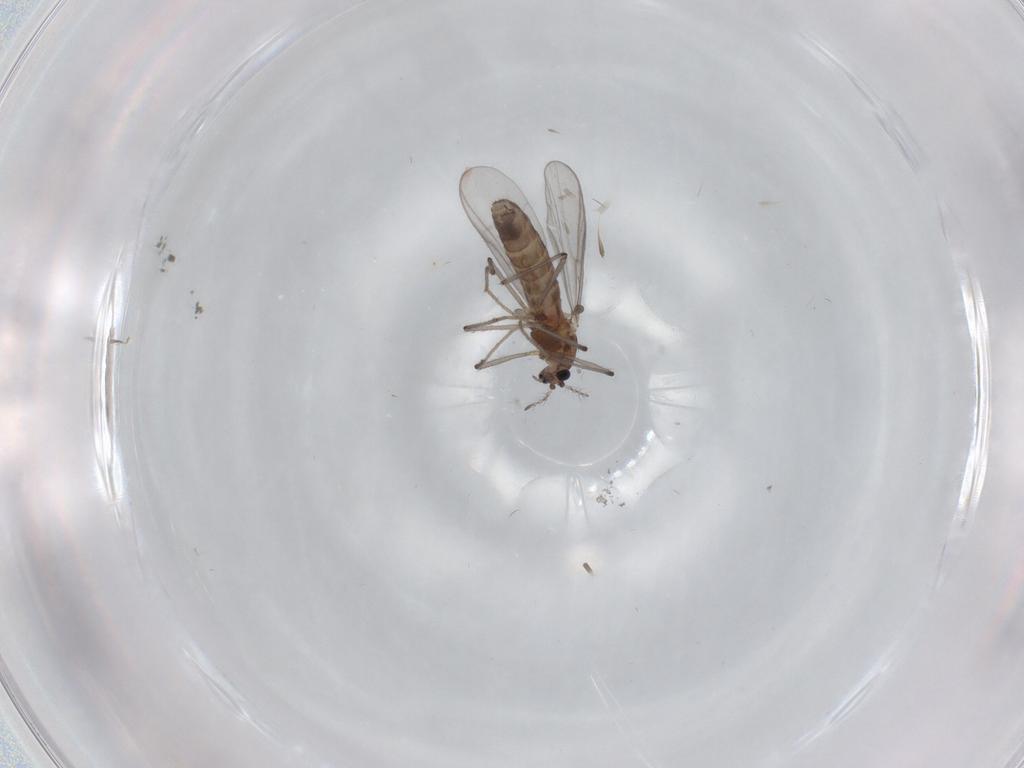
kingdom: Animalia
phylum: Arthropoda
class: Insecta
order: Diptera
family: Chironomidae
